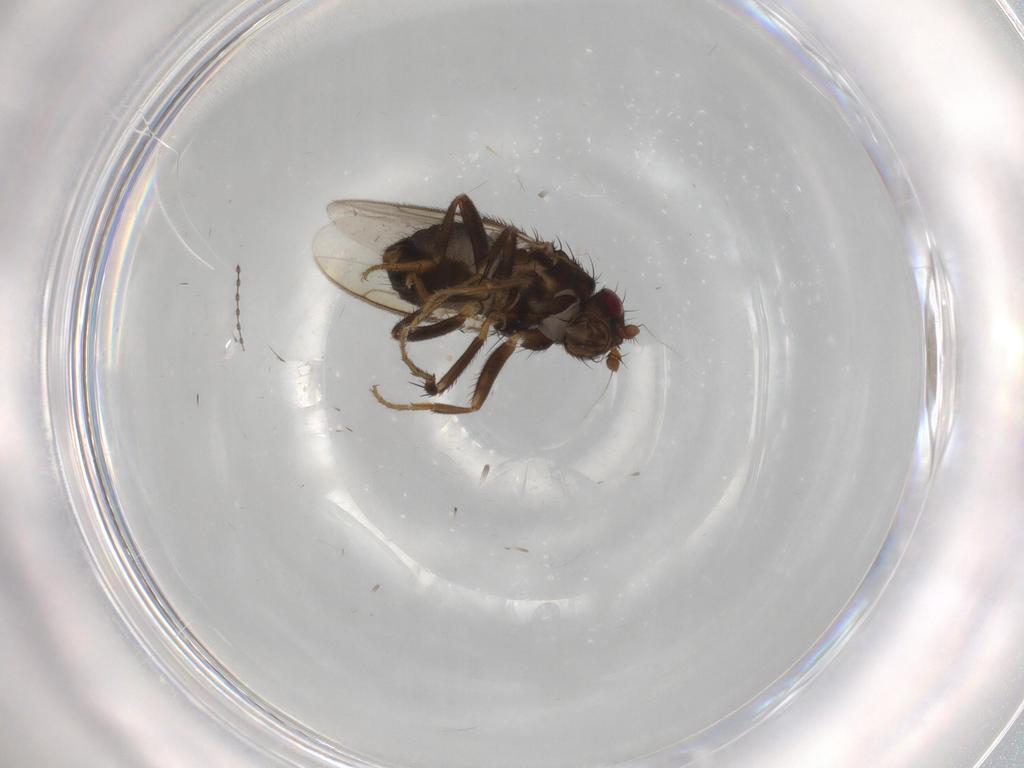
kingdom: Animalia
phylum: Arthropoda
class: Insecta
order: Diptera
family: Sphaeroceridae
